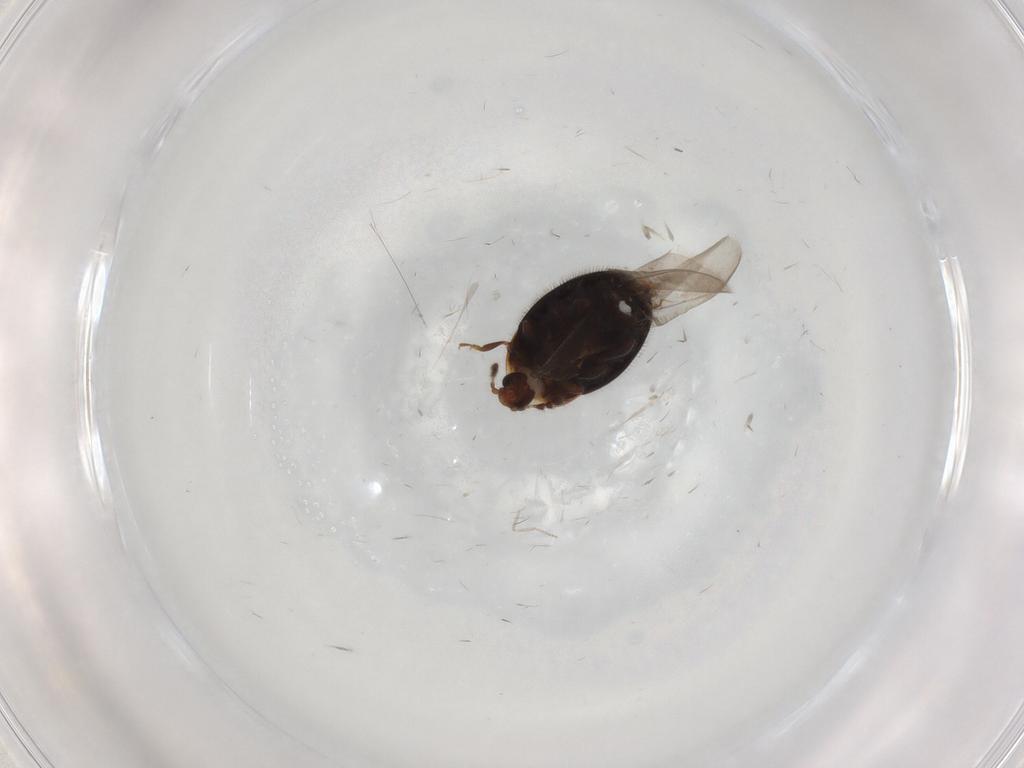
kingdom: Animalia
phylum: Arthropoda
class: Insecta
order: Coleoptera
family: Corylophidae
